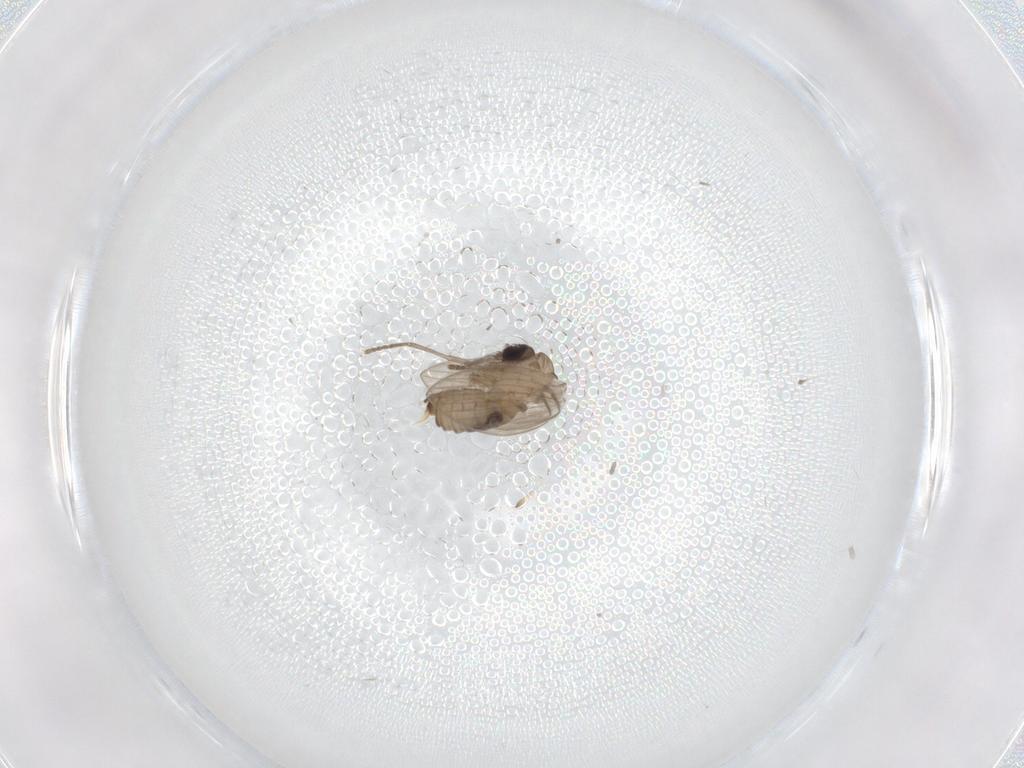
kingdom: Animalia
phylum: Arthropoda
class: Insecta
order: Diptera
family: Psychodidae
